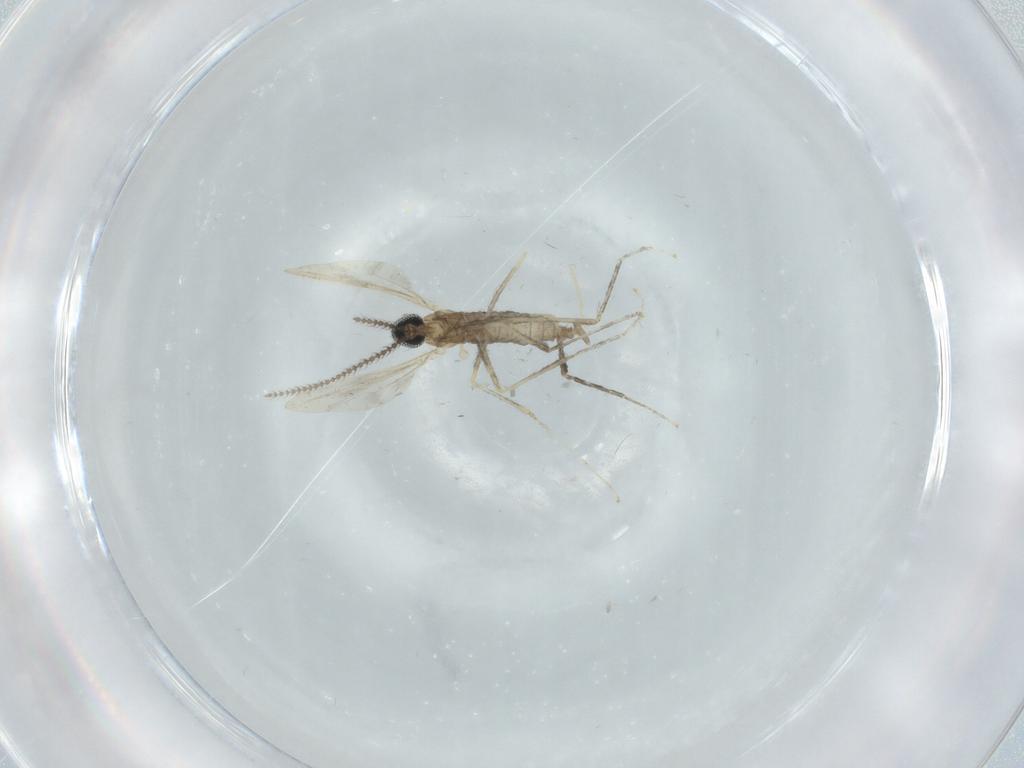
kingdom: Animalia
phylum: Arthropoda
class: Insecta
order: Diptera
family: Cecidomyiidae
